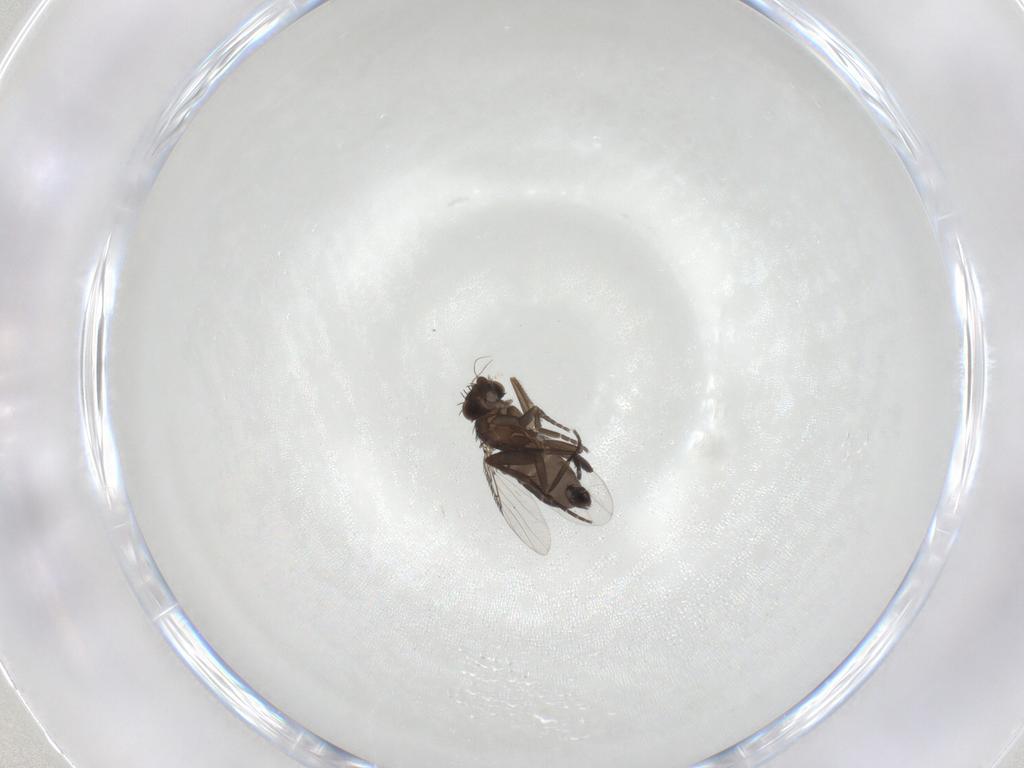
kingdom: Animalia
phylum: Arthropoda
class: Insecta
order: Diptera
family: Phoridae
